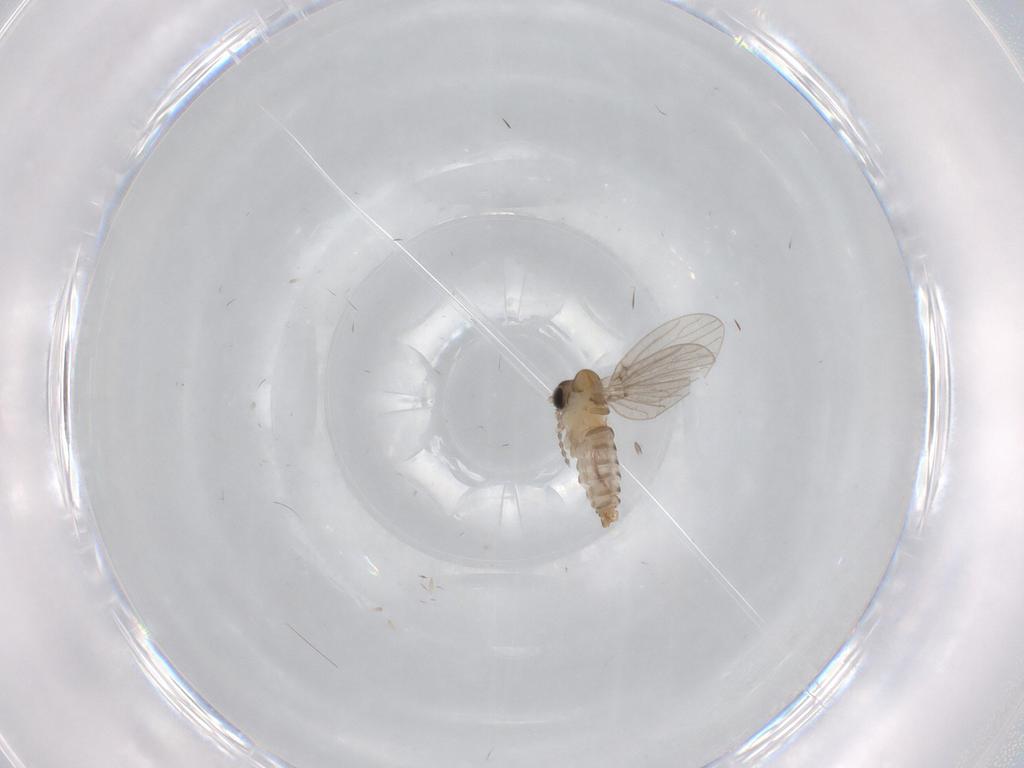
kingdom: Animalia
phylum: Arthropoda
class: Insecta
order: Diptera
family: Psychodidae
